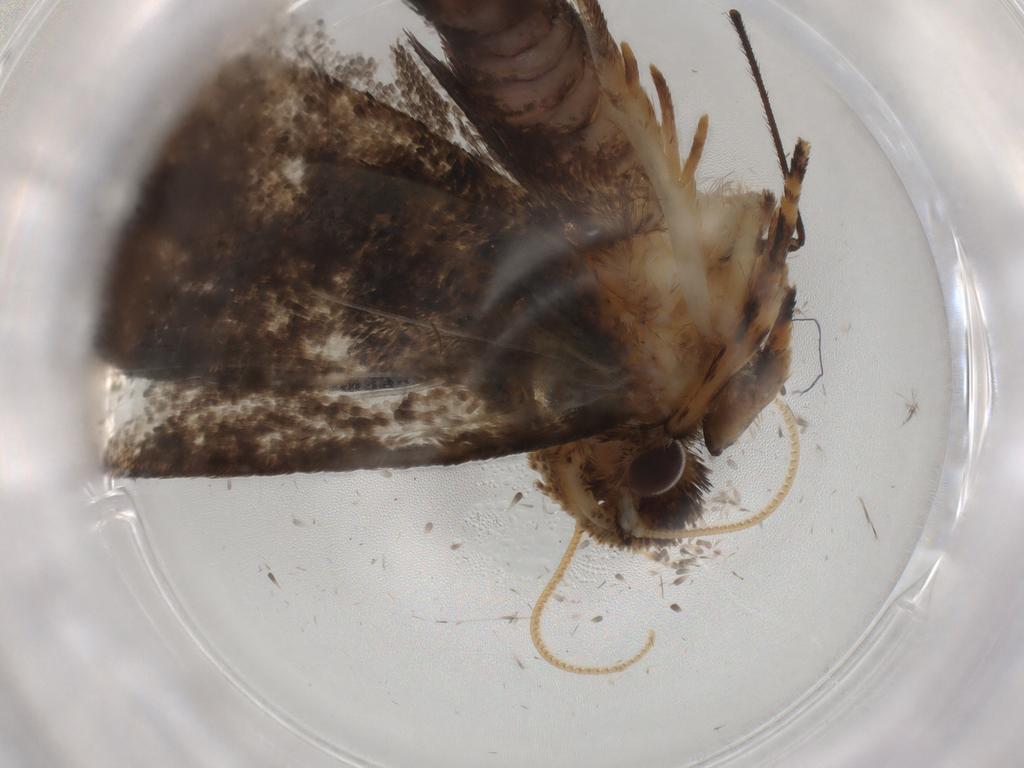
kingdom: Animalia
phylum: Arthropoda
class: Insecta
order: Lepidoptera
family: Tineidae
